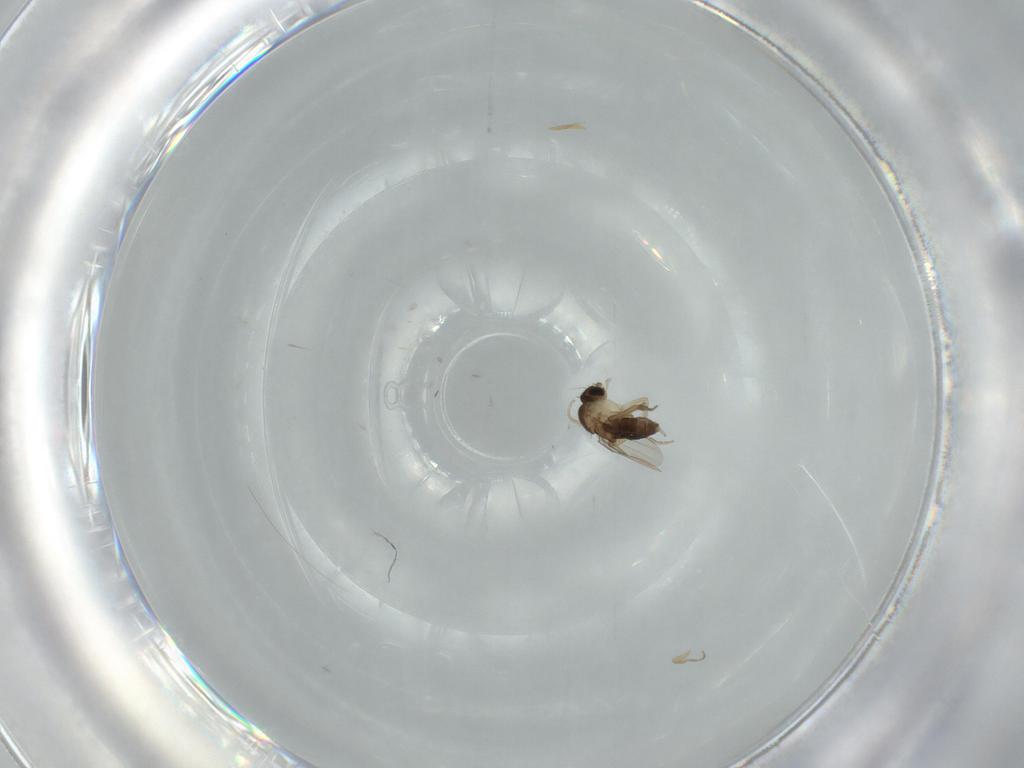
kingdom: Animalia
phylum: Arthropoda
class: Insecta
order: Diptera
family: Phoridae
